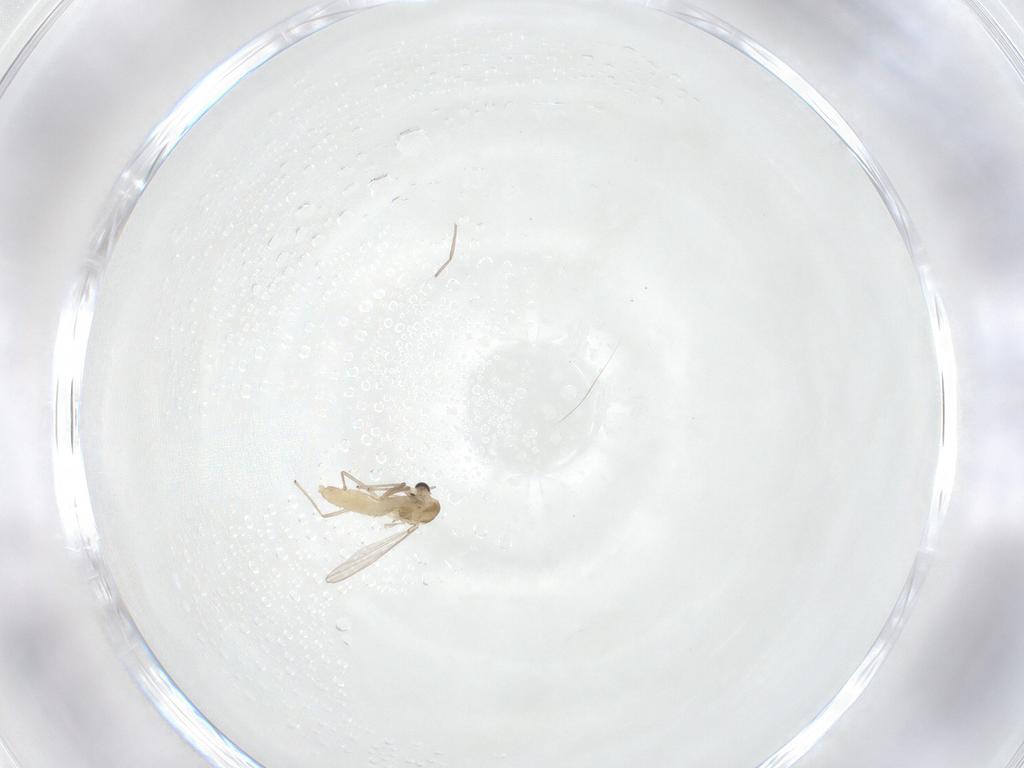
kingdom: Animalia
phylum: Arthropoda
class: Insecta
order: Diptera
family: Chironomidae
